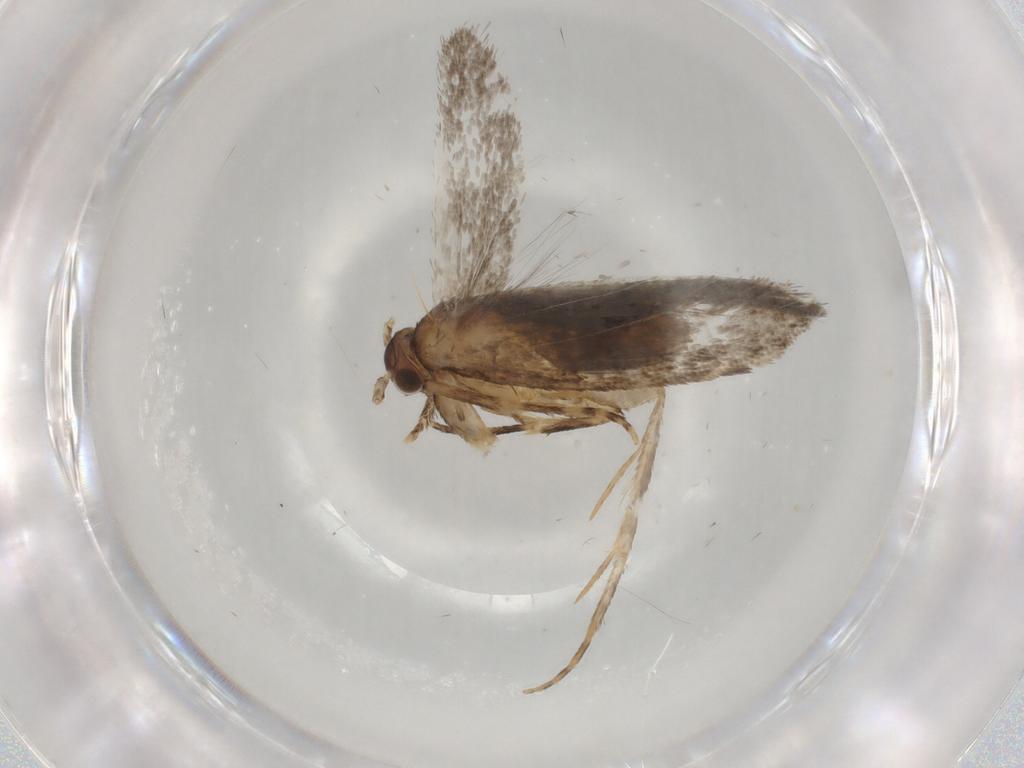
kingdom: Animalia
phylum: Arthropoda
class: Insecta
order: Lepidoptera
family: Dryadaulidae
